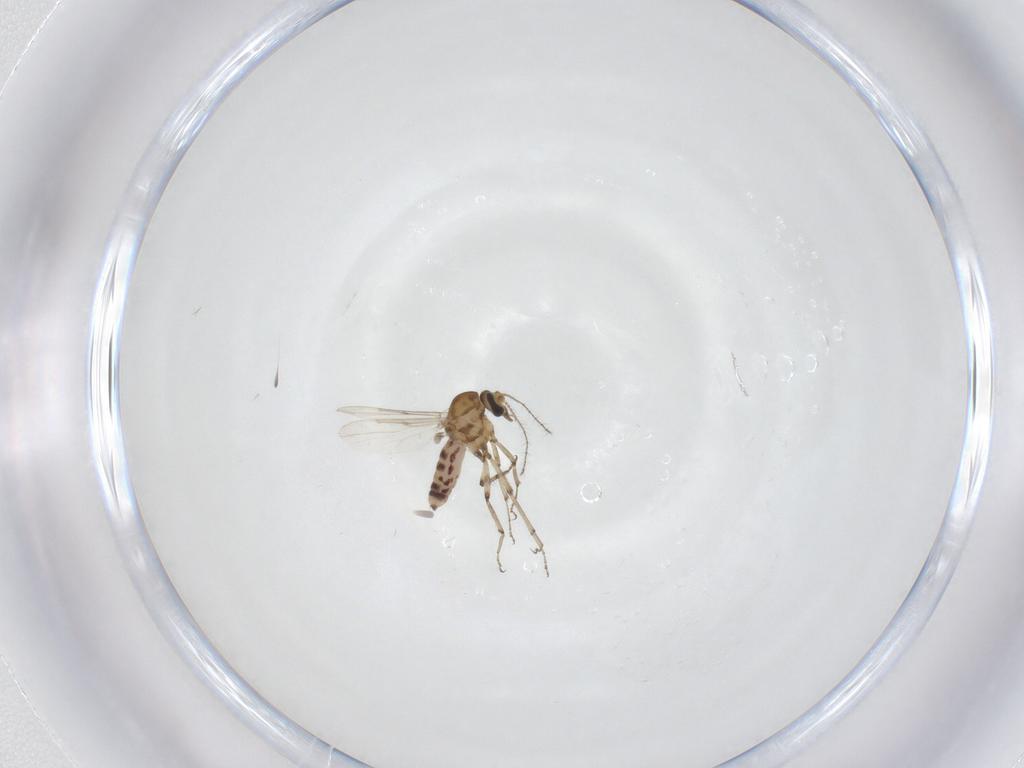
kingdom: Animalia
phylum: Arthropoda
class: Insecta
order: Diptera
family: Ceratopogonidae
